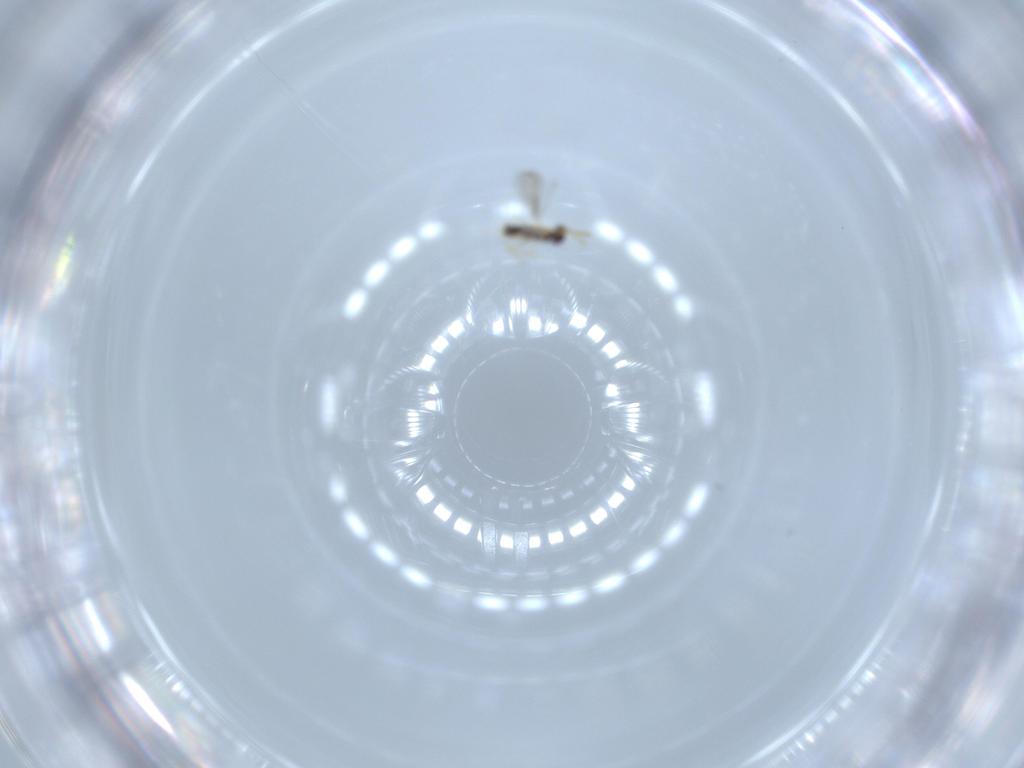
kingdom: Animalia
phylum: Arthropoda
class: Insecta
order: Hymenoptera
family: Aphelinidae
